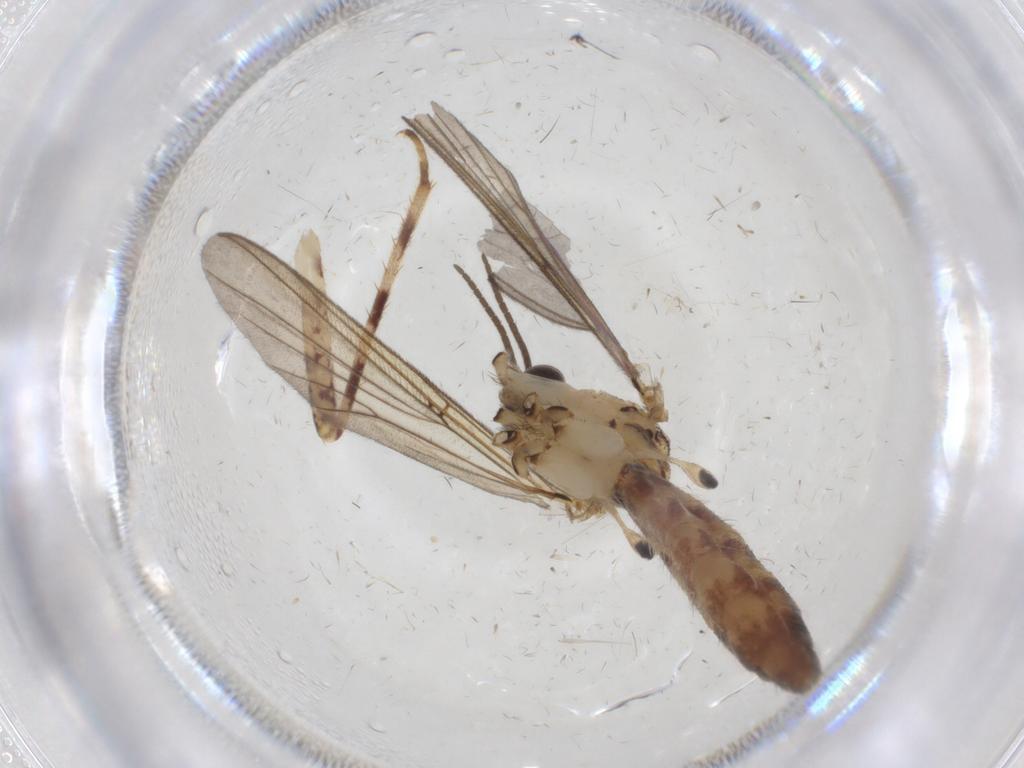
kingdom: Animalia
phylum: Arthropoda
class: Insecta
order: Diptera
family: Sciaridae
